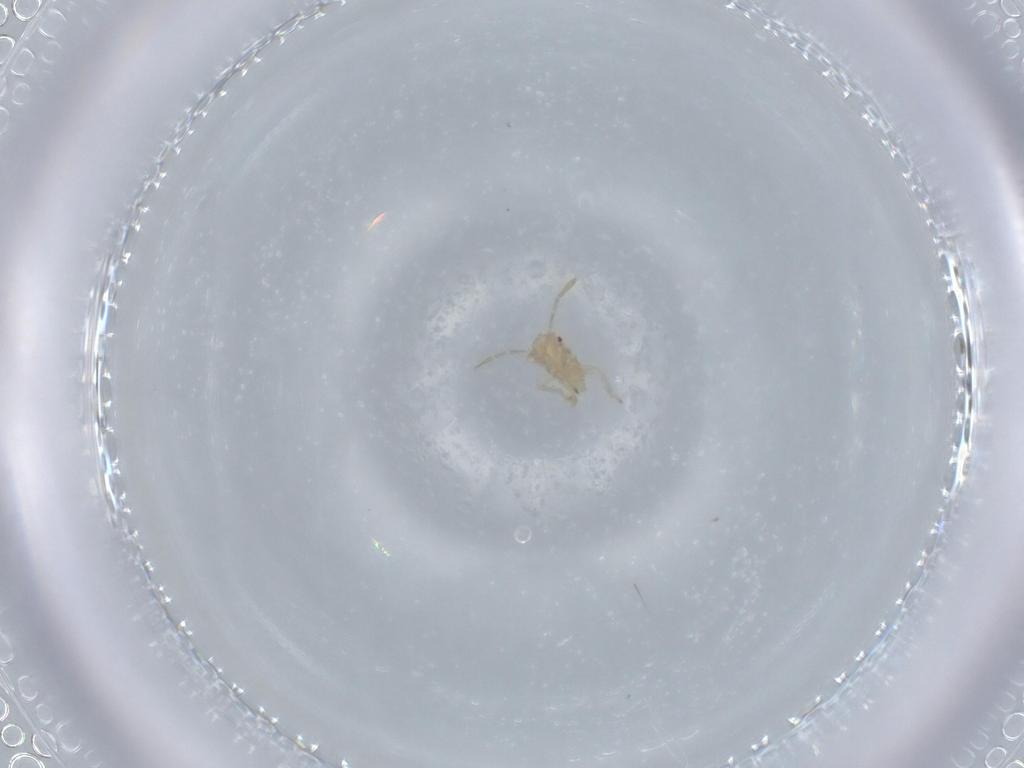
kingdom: Animalia
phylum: Arthropoda
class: Insecta
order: Hemiptera
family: Miridae
